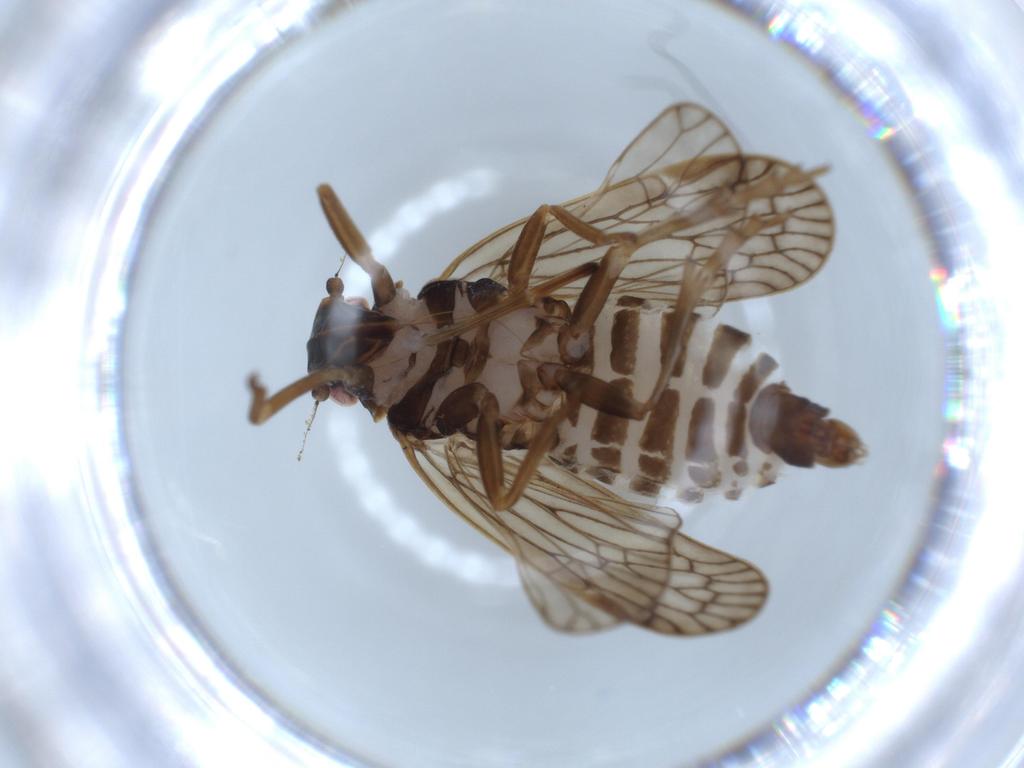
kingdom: Animalia
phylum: Arthropoda
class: Insecta
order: Hemiptera
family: Cixiidae
